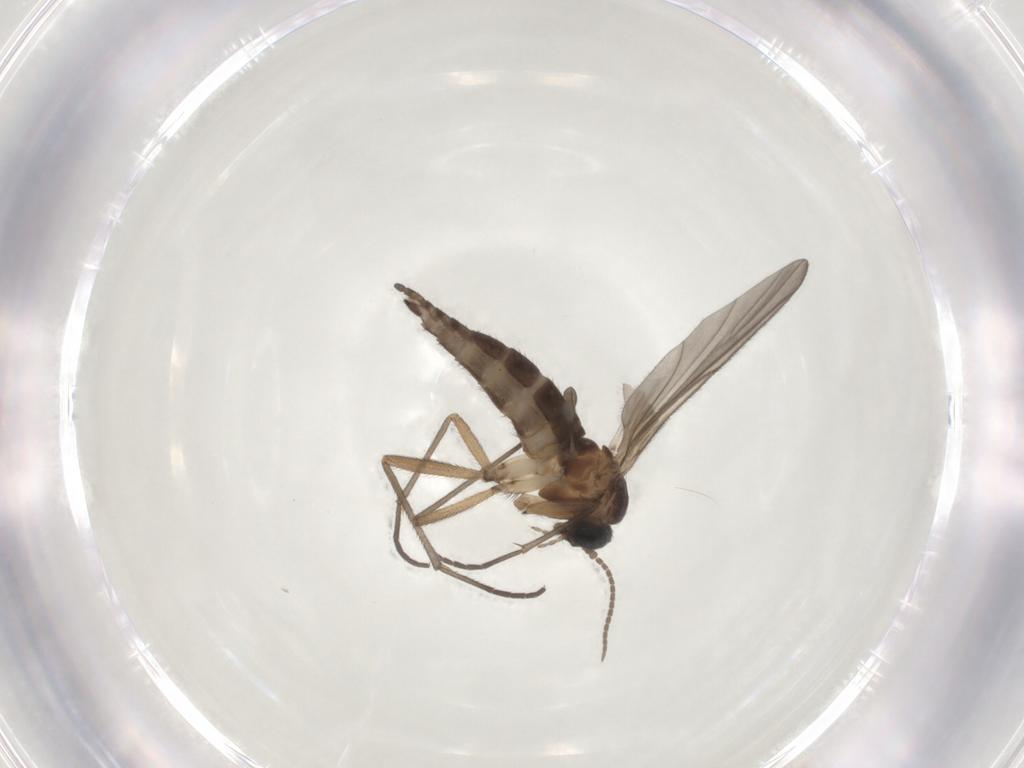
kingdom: Animalia
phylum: Arthropoda
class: Insecta
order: Diptera
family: Sciaridae
